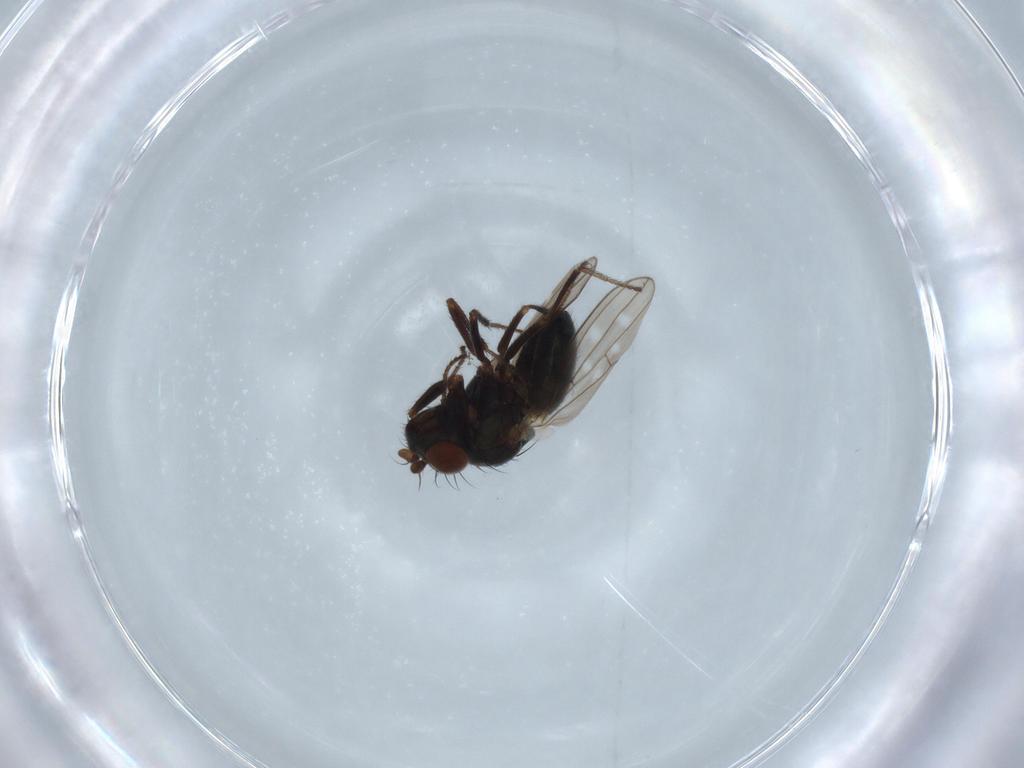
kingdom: Animalia
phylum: Arthropoda
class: Insecta
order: Diptera
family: Ephydridae
